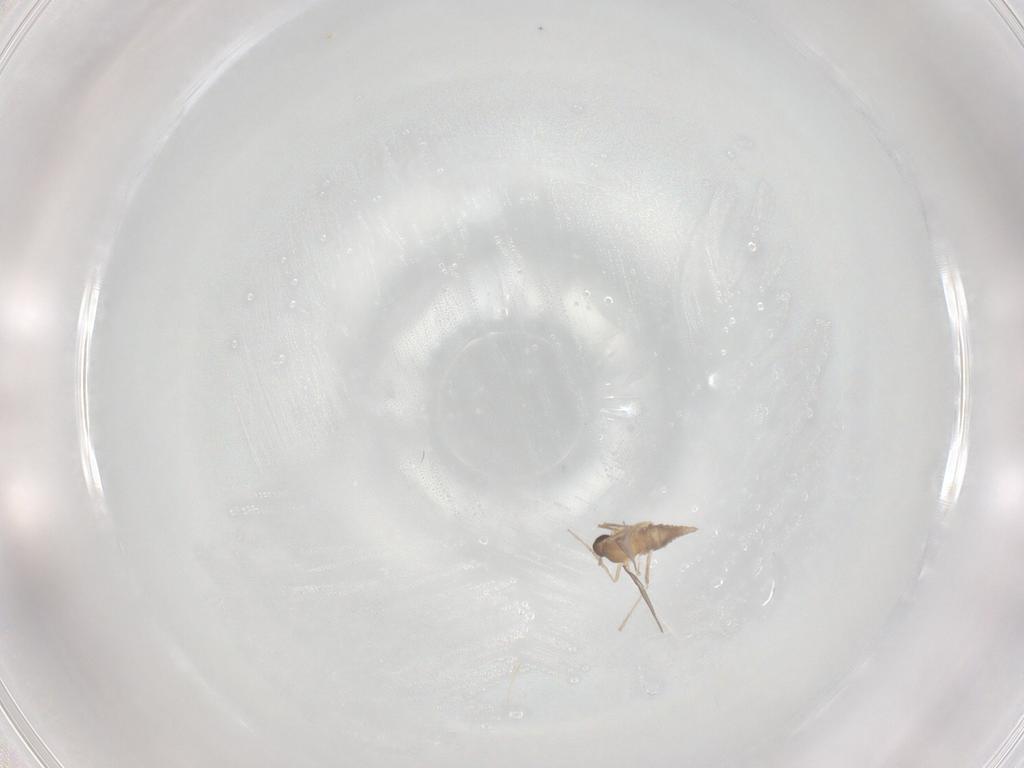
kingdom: Animalia
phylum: Arthropoda
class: Insecta
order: Diptera
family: Cecidomyiidae
